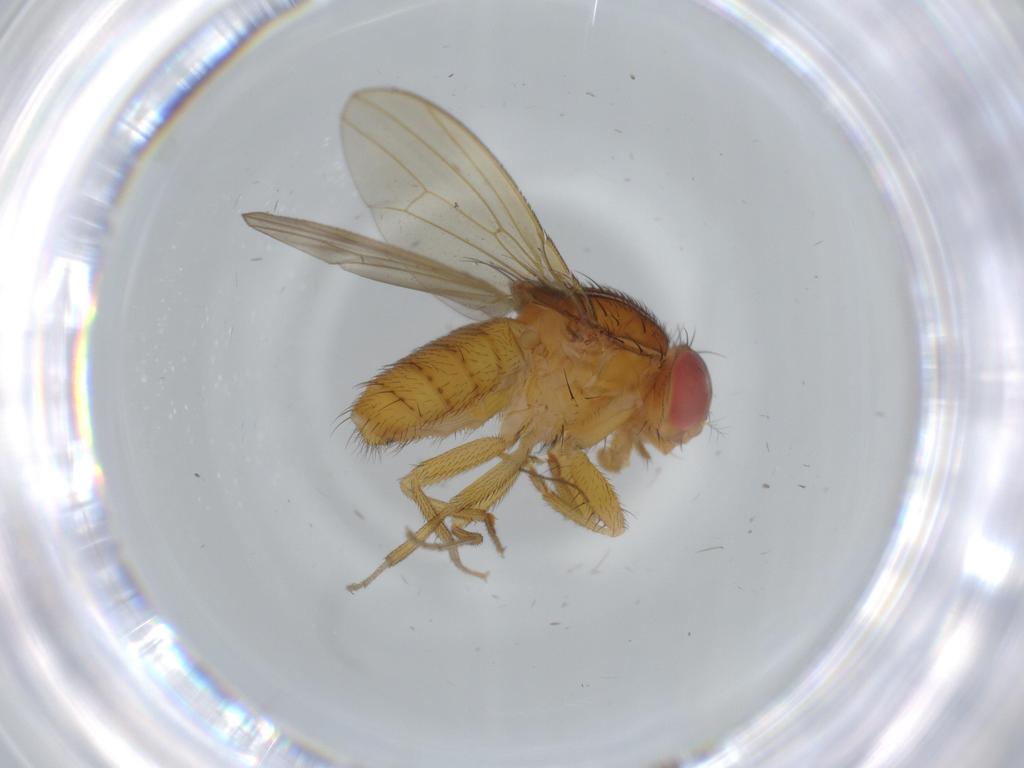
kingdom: Animalia
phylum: Arthropoda
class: Insecta
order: Diptera
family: Drosophilidae
